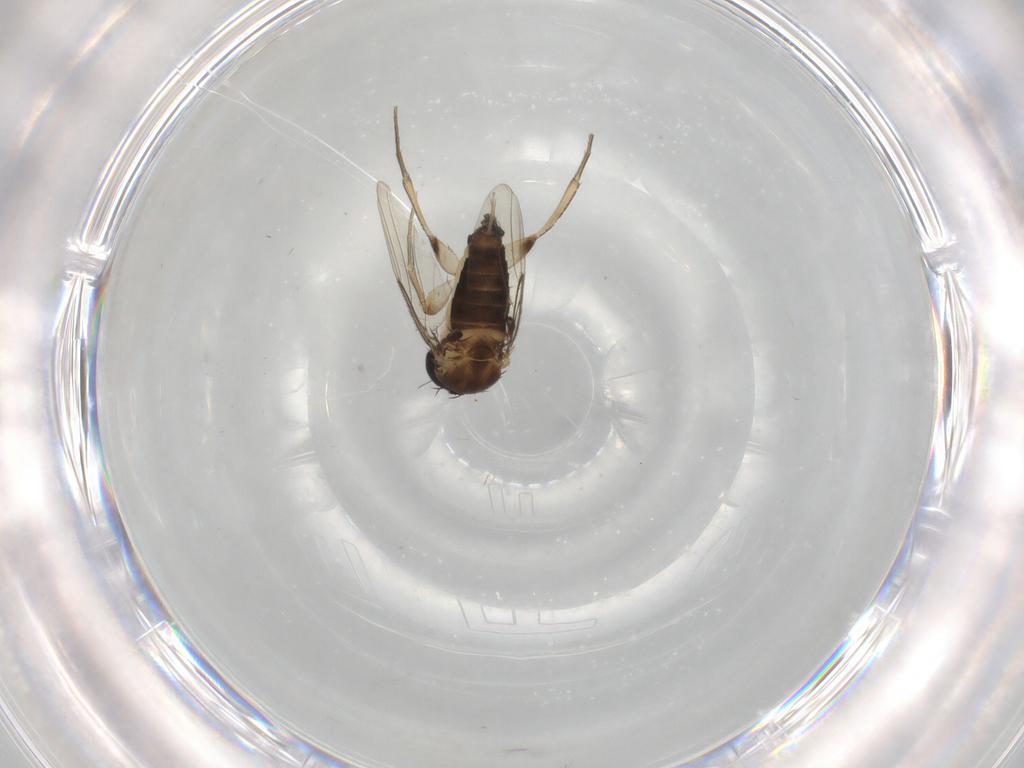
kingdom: Animalia
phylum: Arthropoda
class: Insecta
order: Diptera
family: Phoridae
